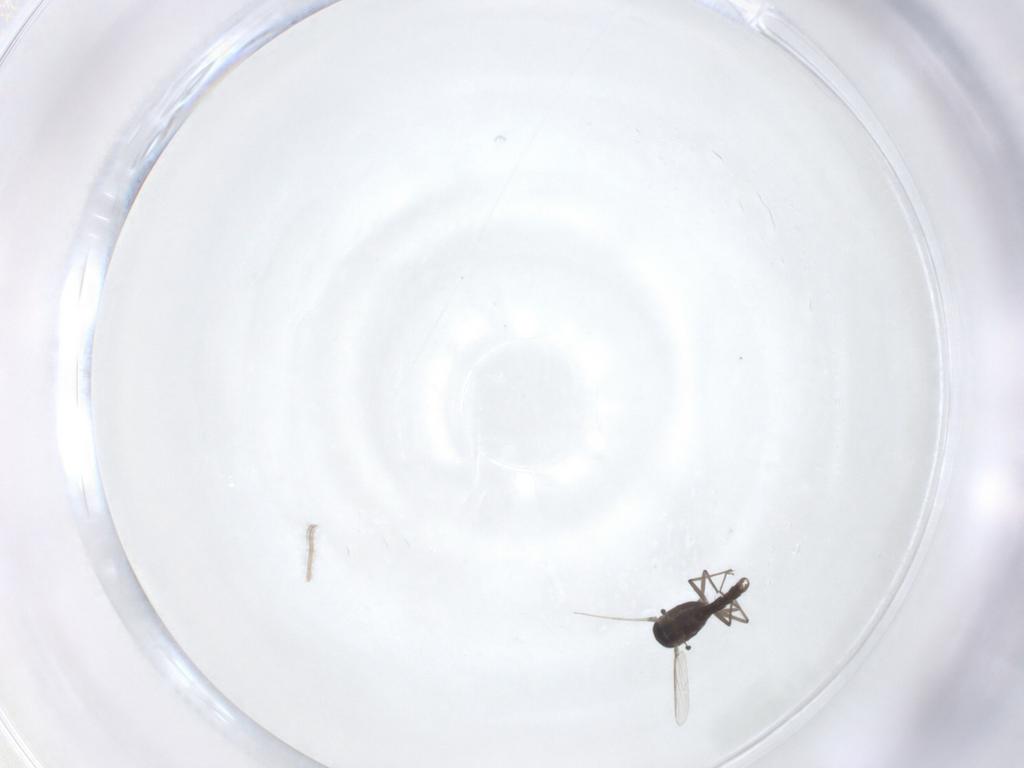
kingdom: Animalia
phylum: Arthropoda
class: Insecta
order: Diptera
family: Chironomidae
